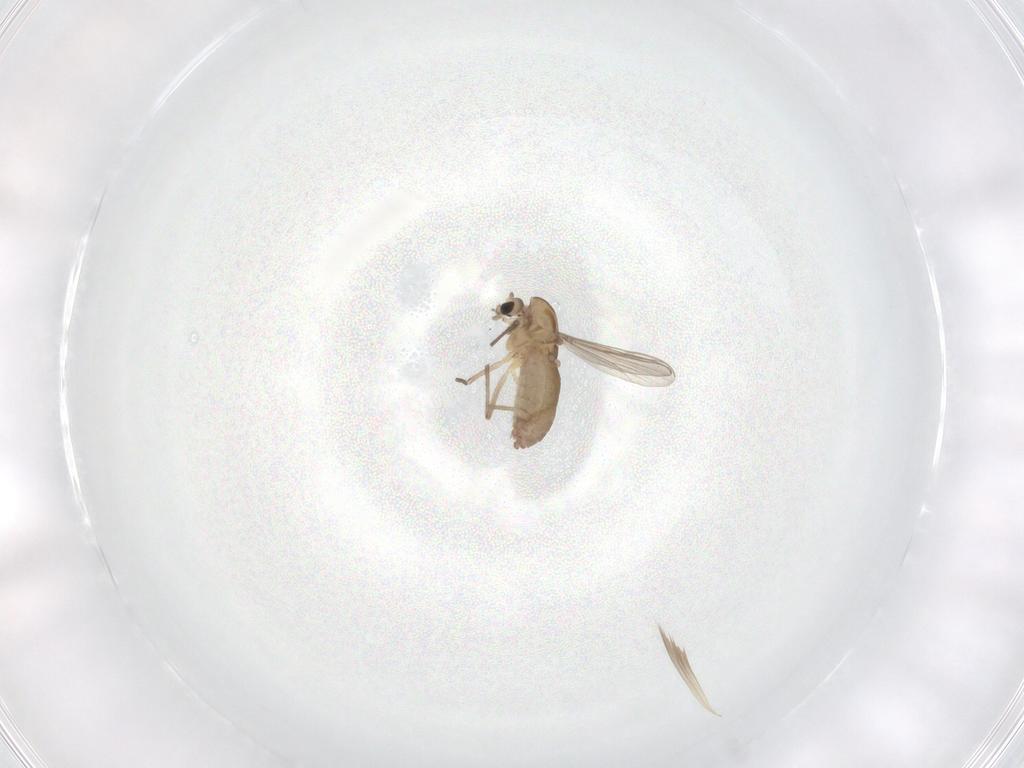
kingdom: Animalia
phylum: Arthropoda
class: Insecta
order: Diptera
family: Chironomidae
